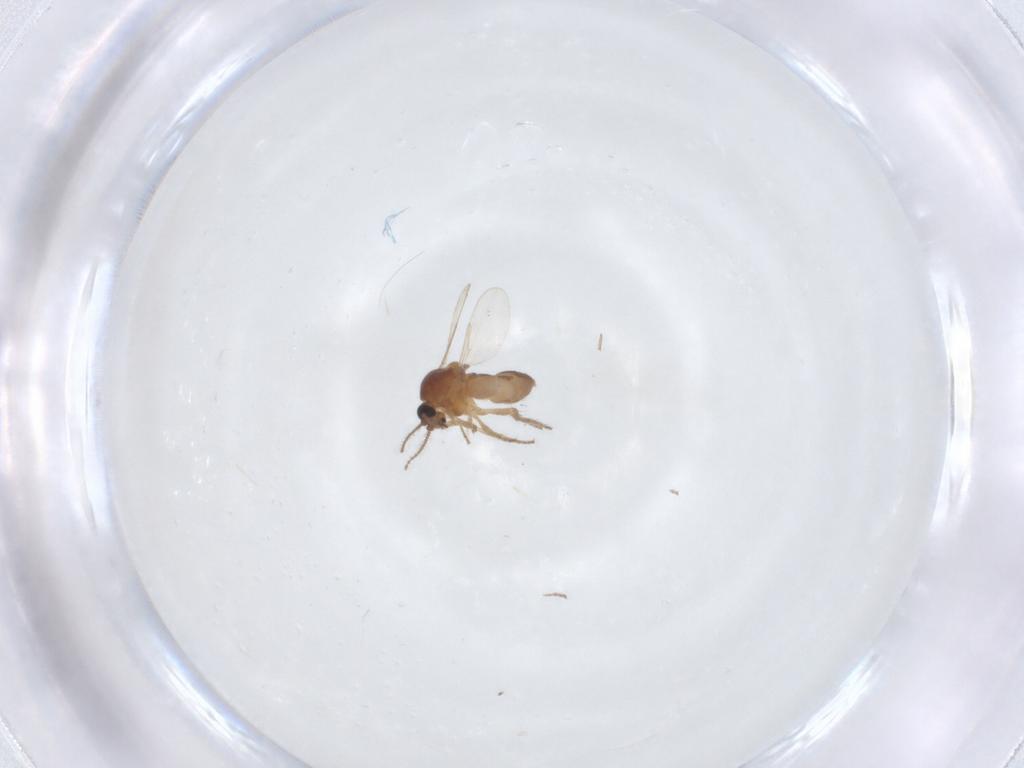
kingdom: Animalia
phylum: Arthropoda
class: Insecta
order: Diptera
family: Ceratopogonidae
